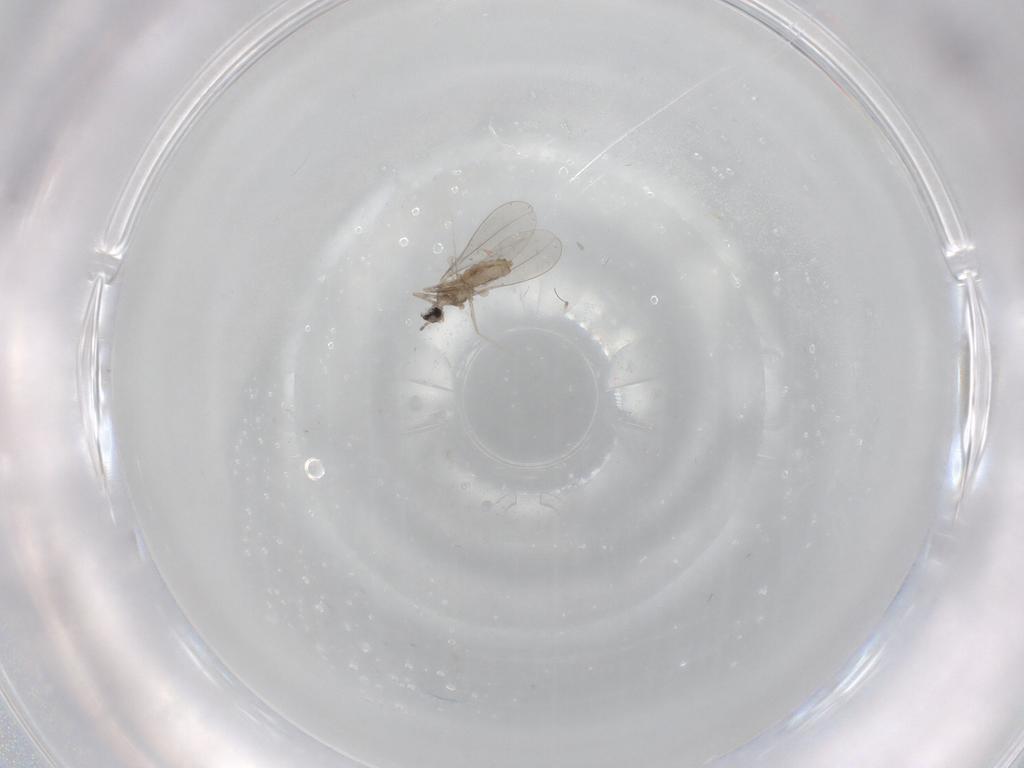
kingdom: Animalia
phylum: Arthropoda
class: Insecta
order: Diptera
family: Cecidomyiidae
